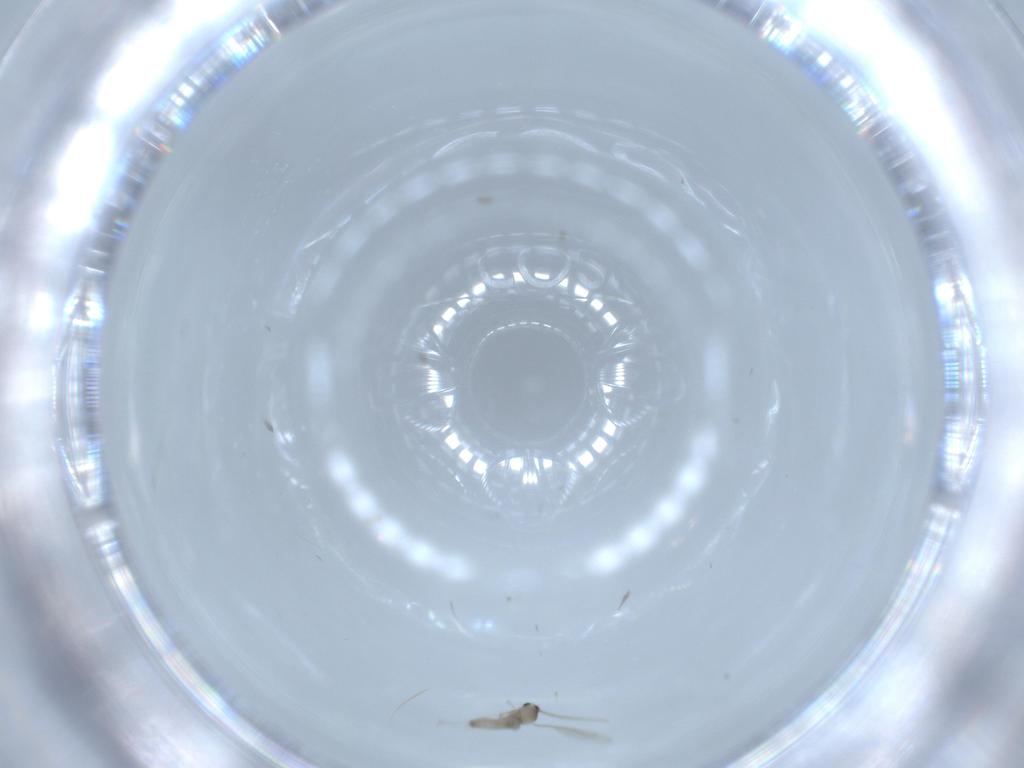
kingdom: Animalia
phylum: Arthropoda
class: Insecta
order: Diptera
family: Cecidomyiidae
